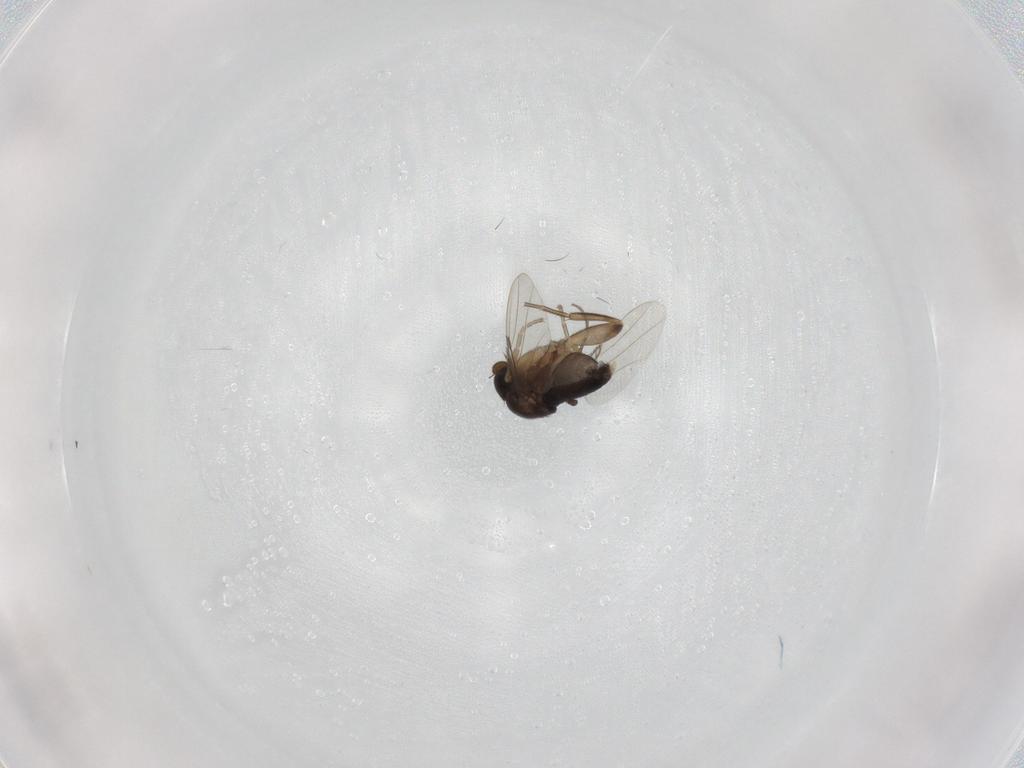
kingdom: Animalia
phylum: Arthropoda
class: Insecta
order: Diptera
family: Phoridae
